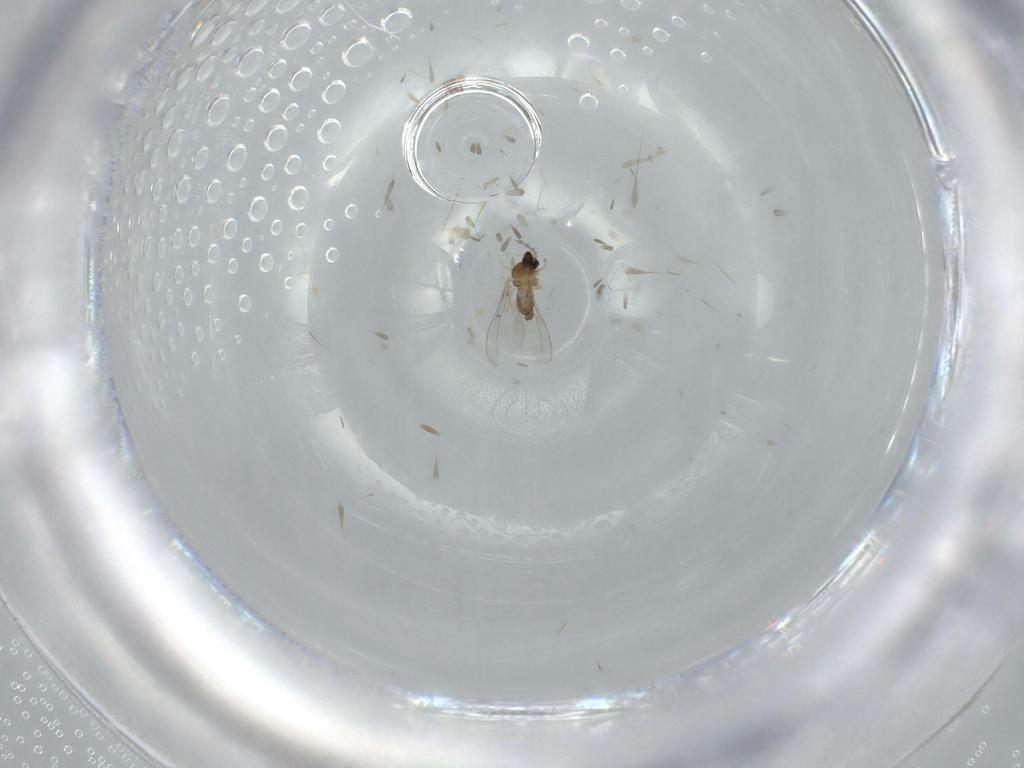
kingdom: Animalia
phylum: Arthropoda
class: Insecta
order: Diptera
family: Cecidomyiidae
